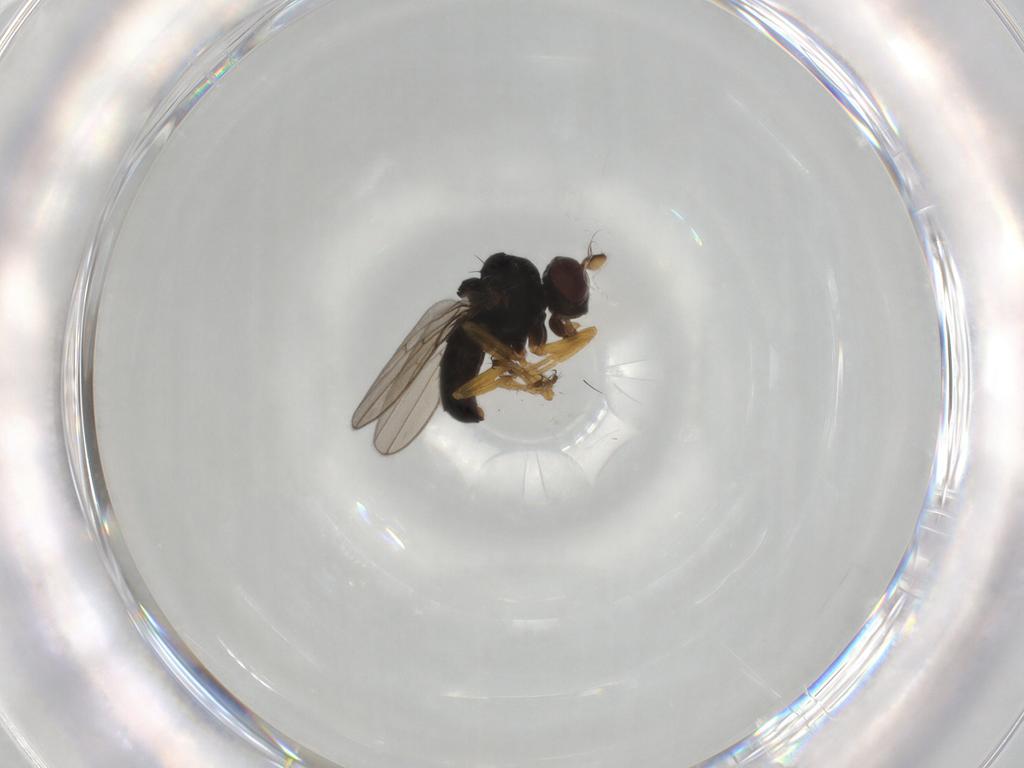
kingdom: Animalia
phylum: Arthropoda
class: Insecta
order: Diptera
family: Ephydridae
